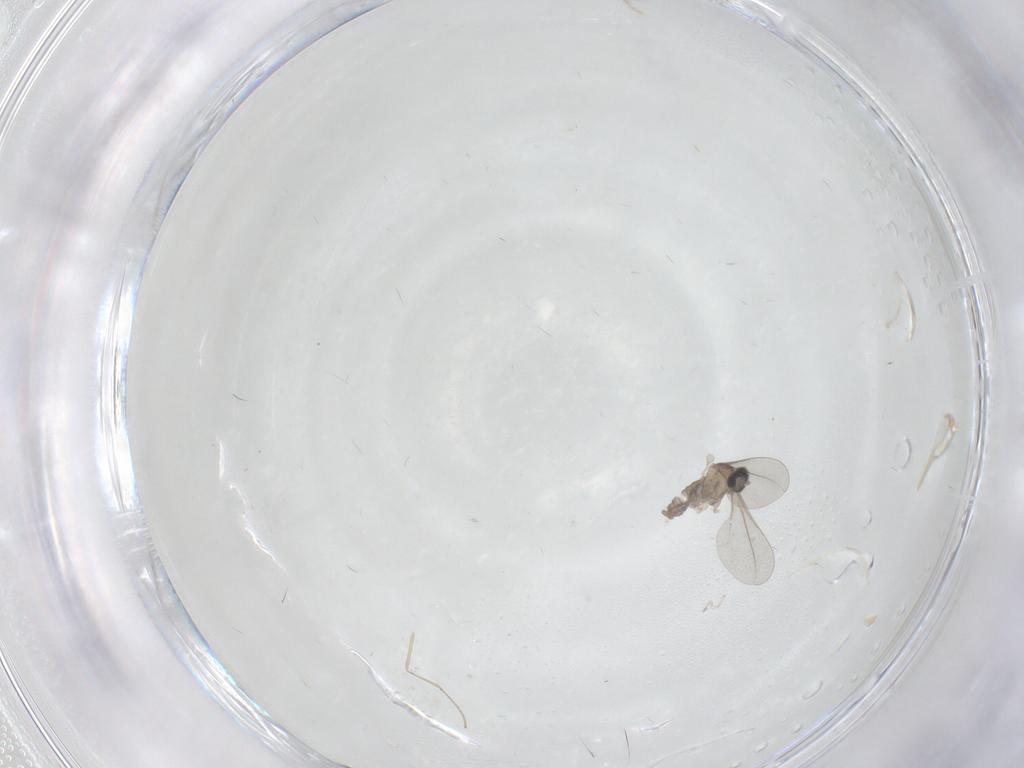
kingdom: Animalia
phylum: Arthropoda
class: Insecta
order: Diptera
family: Cecidomyiidae
